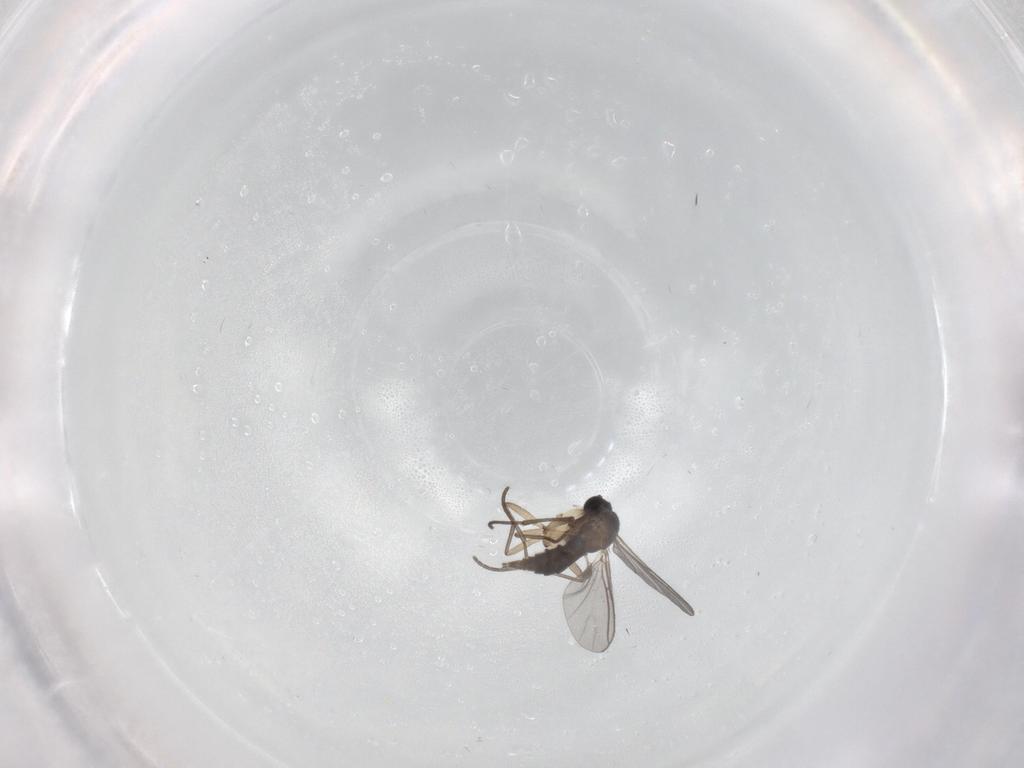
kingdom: Animalia
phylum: Arthropoda
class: Insecta
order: Diptera
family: Sciaridae
